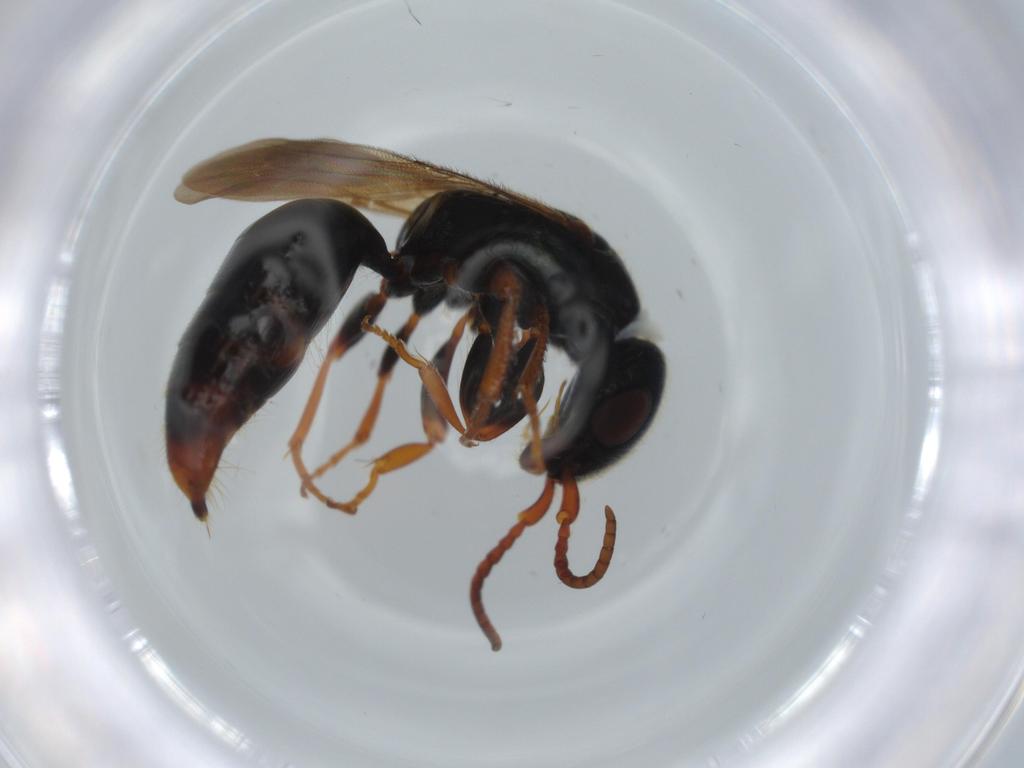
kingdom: Animalia
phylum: Arthropoda
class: Insecta
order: Hymenoptera
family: Bethylidae
